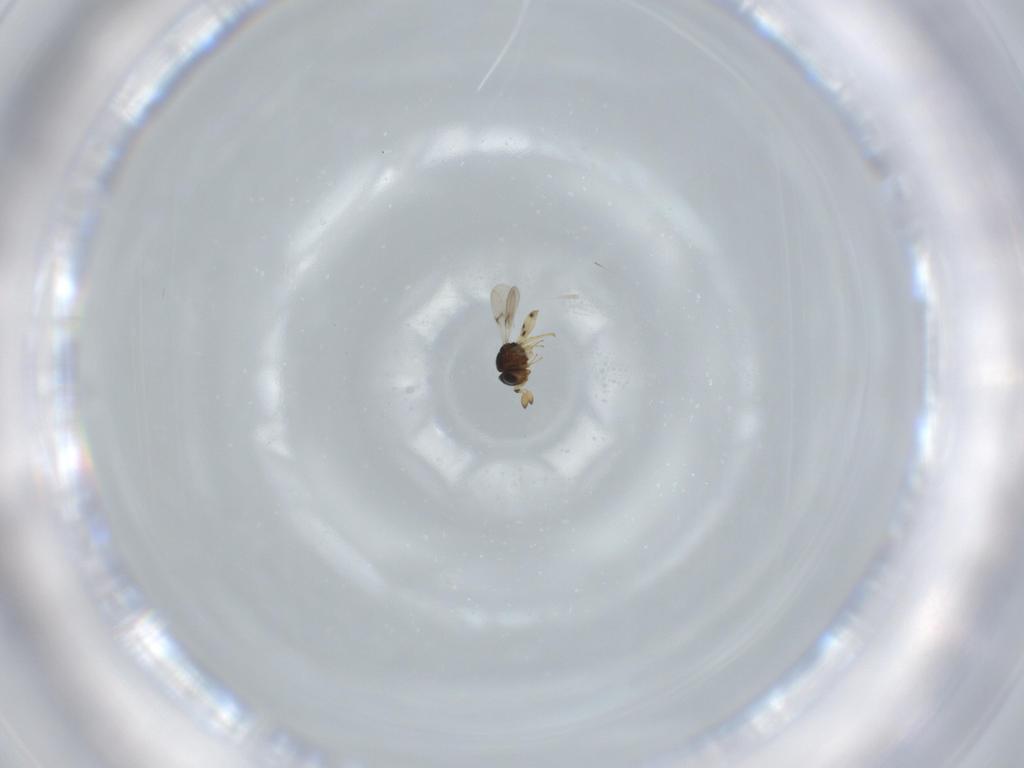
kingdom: Animalia
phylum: Arthropoda
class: Insecta
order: Hymenoptera
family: Scelionidae
